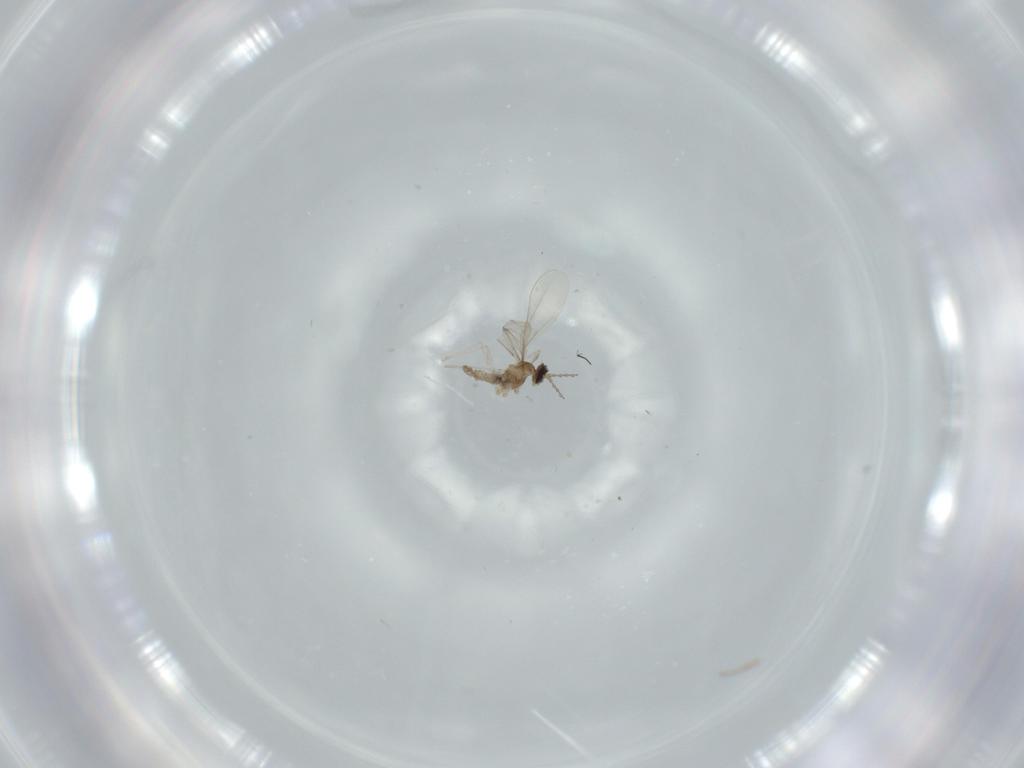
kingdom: Animalia
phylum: Arthropoda
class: Insecta
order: Diptera
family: Cecidomyiidae
